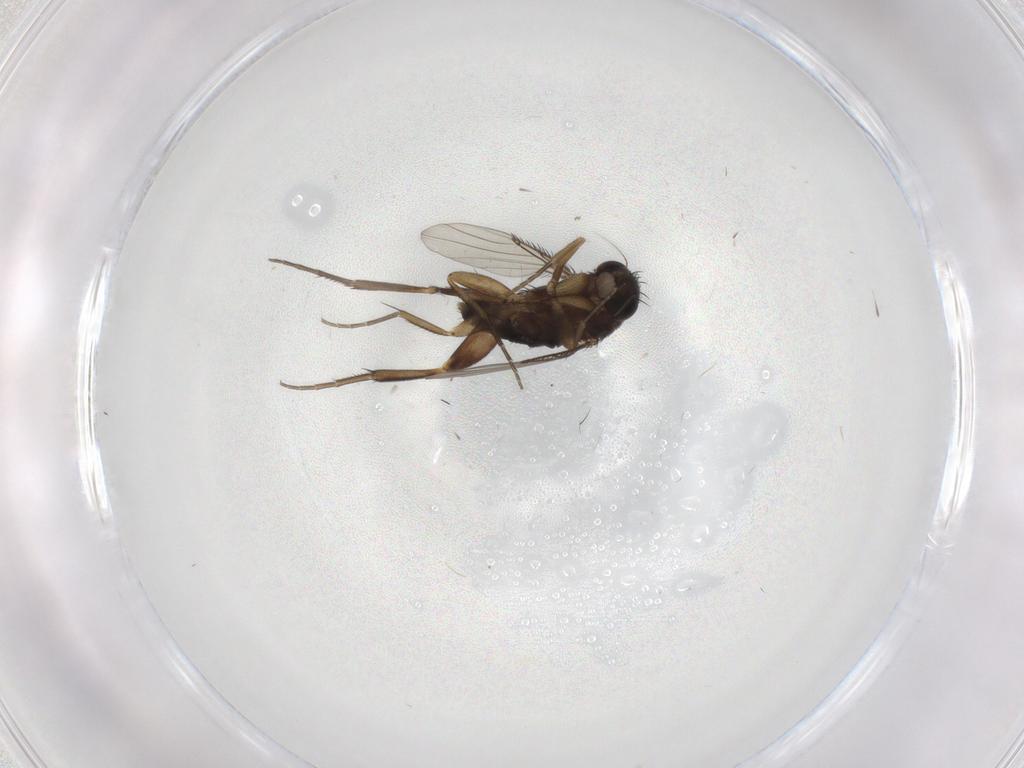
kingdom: Animalia
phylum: Arthropoda
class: Insecta
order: Diptera
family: Phoridae
